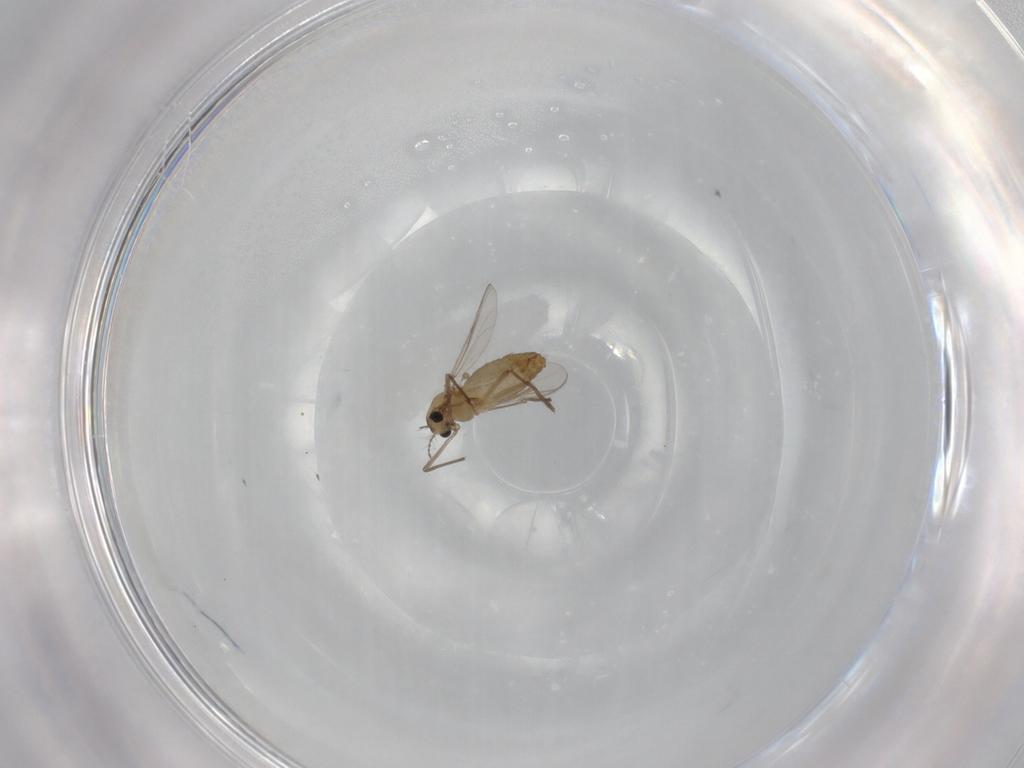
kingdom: Animalia
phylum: Arthropoda
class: Insecta
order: Diptera
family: Chironomidae
